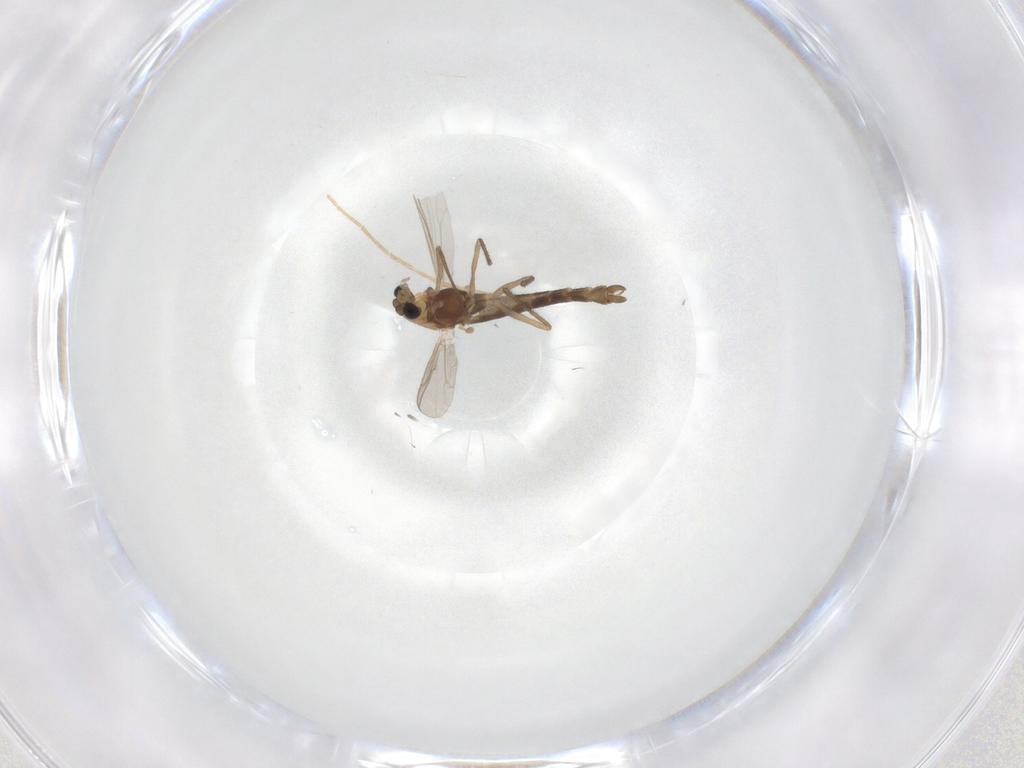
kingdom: Animalia
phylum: Arthropoda
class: Insecta
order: Diptera
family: Chironomidae
